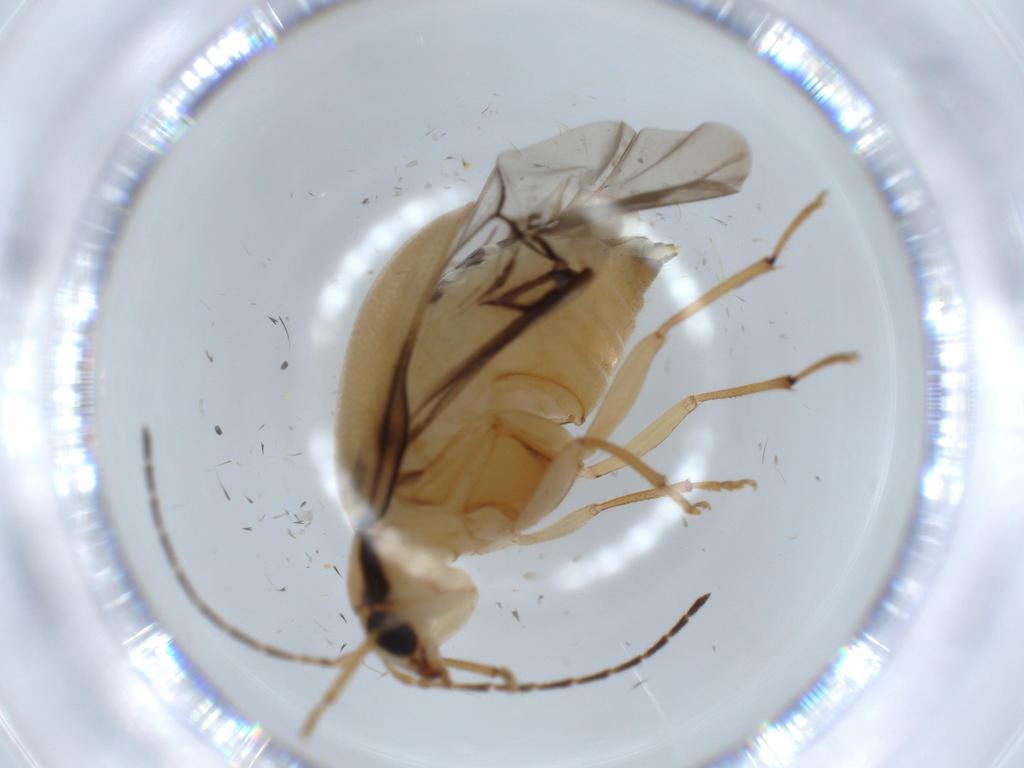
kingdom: Animalia
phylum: Arthropoda
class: Insecta
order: Coleoptera
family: Chrysomelidae
